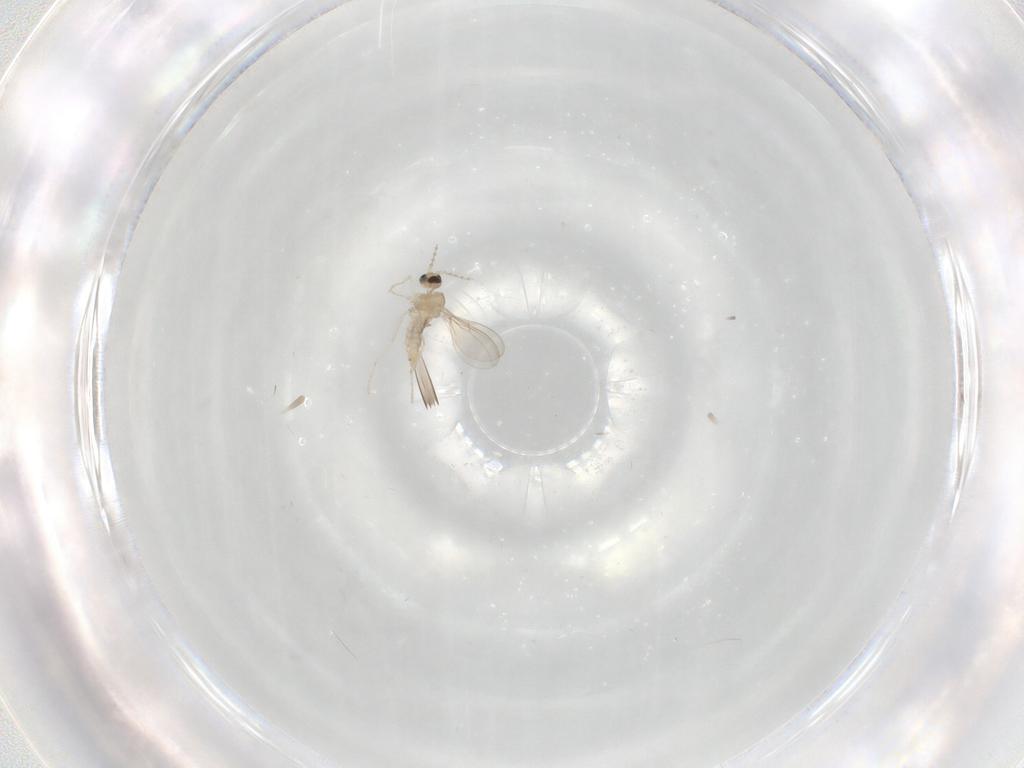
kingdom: Animalia
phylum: Arthropoda
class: Insecta
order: Diptera
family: Cecidomyiidae
